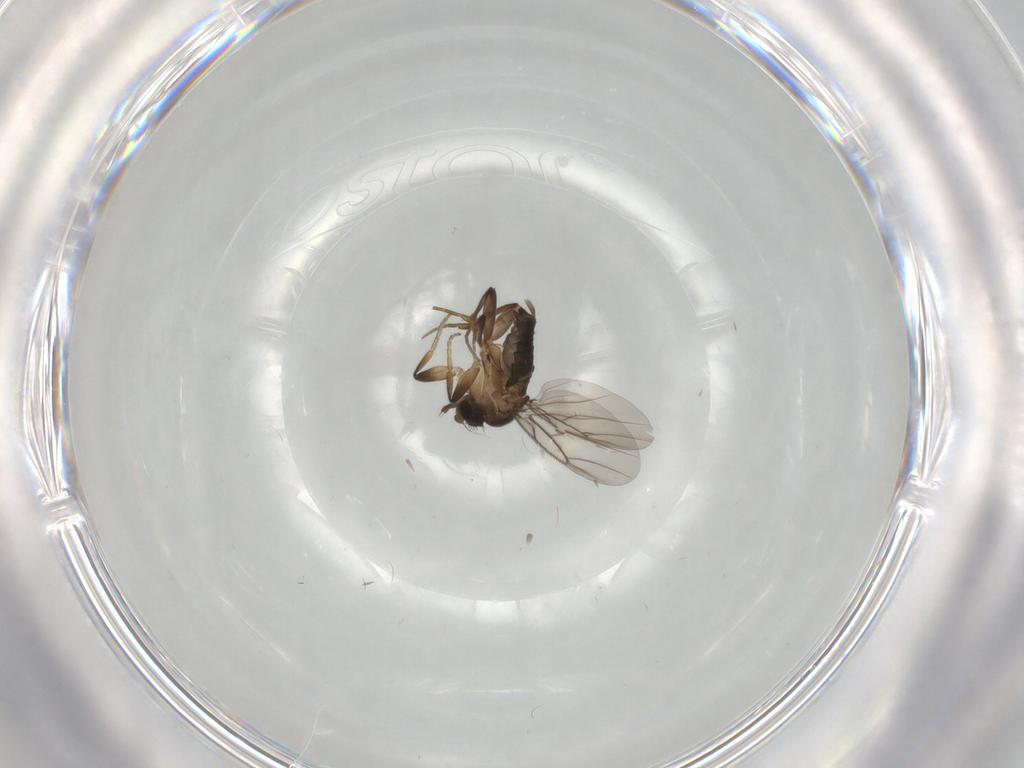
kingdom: Animalia
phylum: Arthropoda
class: Insecta
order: Diptera
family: Phoridae
